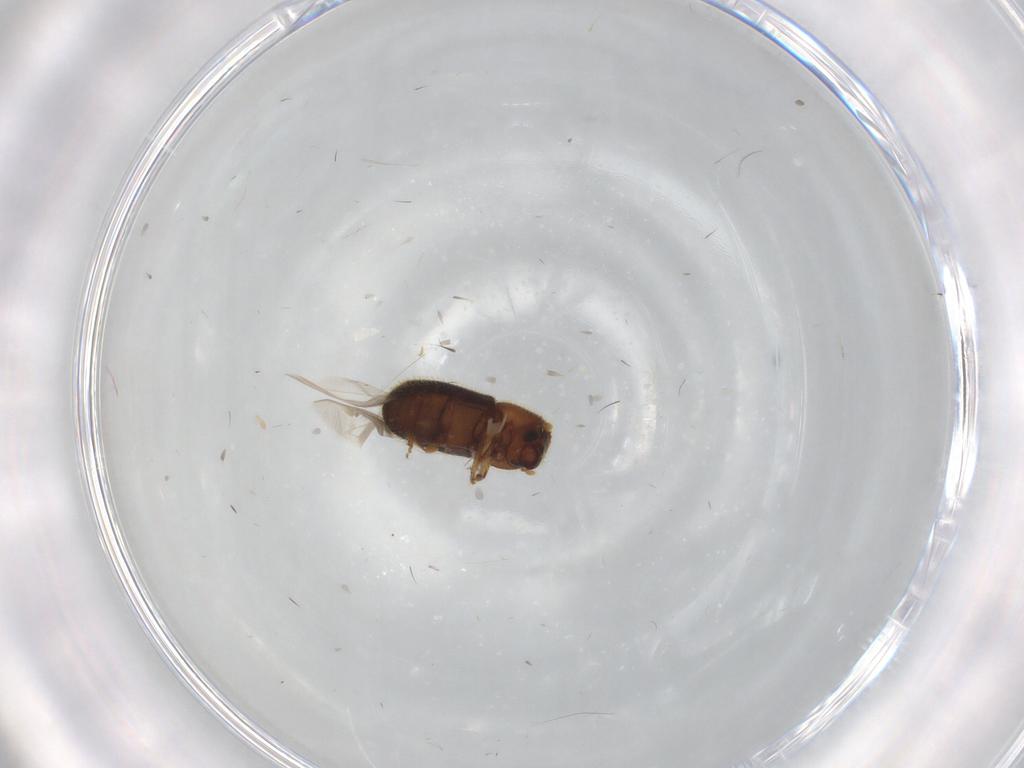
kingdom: Animalia
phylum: Arthropoda
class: Insecta
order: Coleoptera
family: Curculionidae
